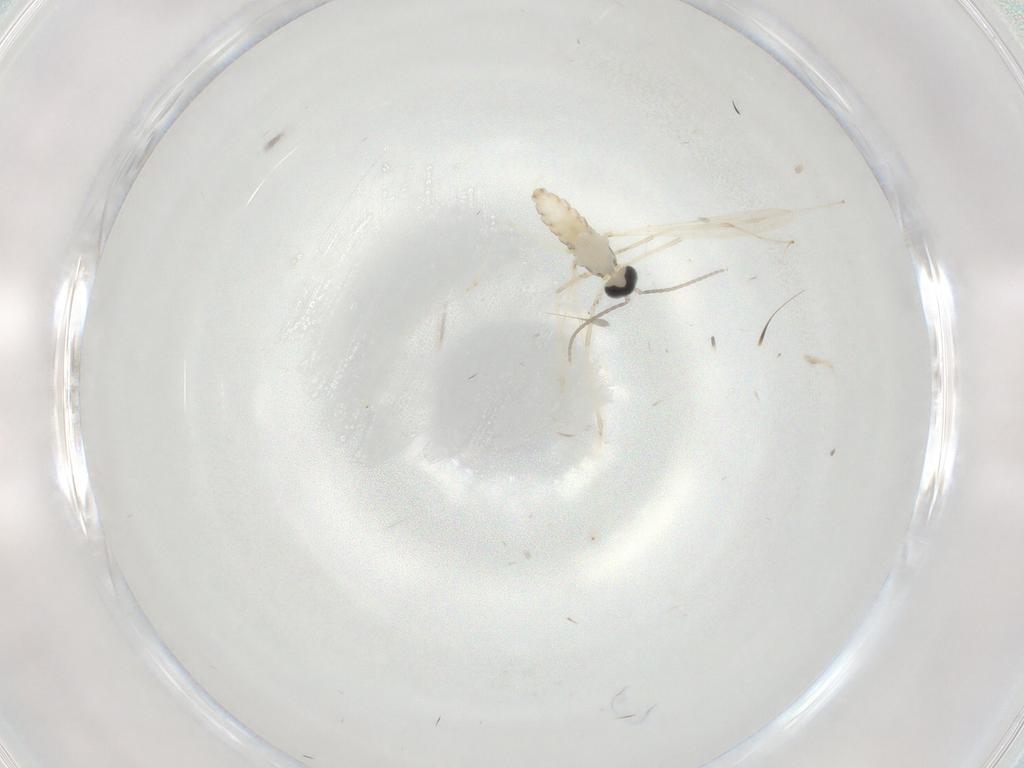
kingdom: Animalia
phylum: Arthropoda
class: Insecta
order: Diptera
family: Cecidomyiidae
